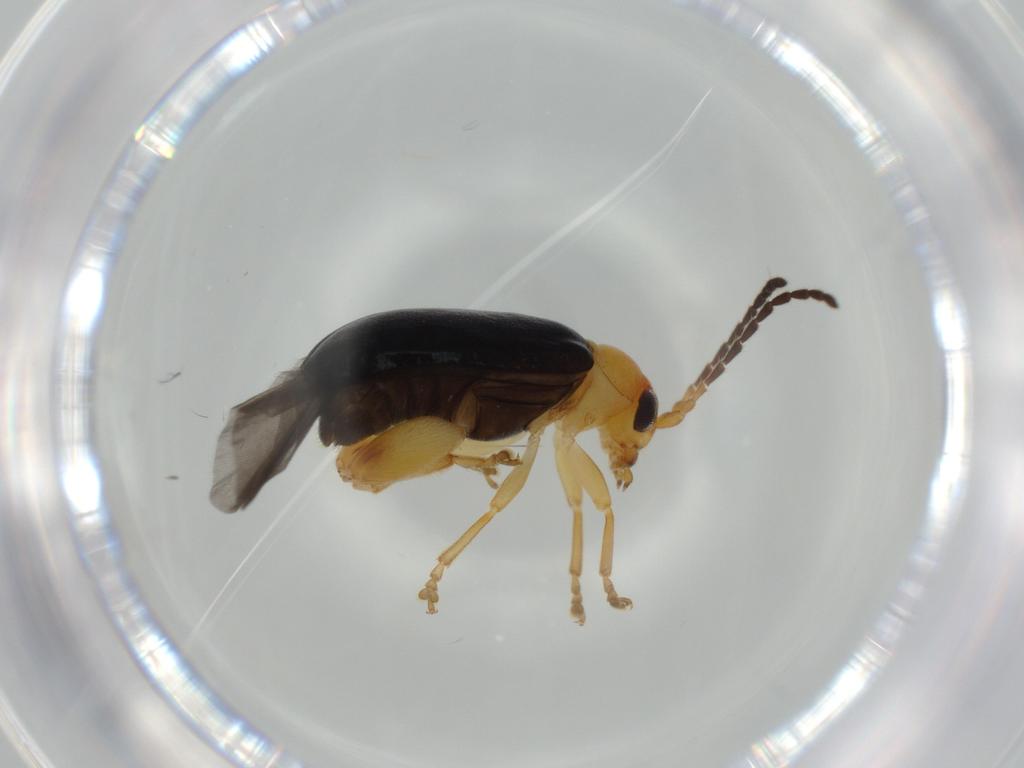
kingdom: Animalia
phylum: Arthropoda
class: Insecta
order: Coleoptera
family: Chrysomelidae
